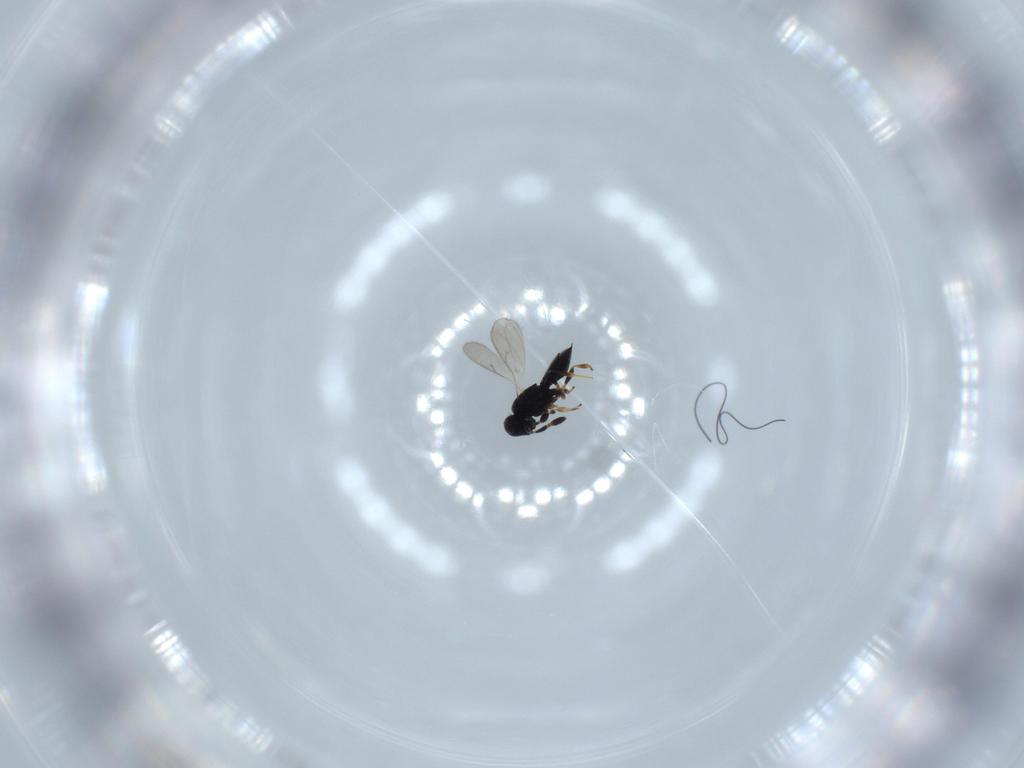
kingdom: Animalia
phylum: Arthropoda
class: Insecta
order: Hymenoptera
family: Scelionidae
